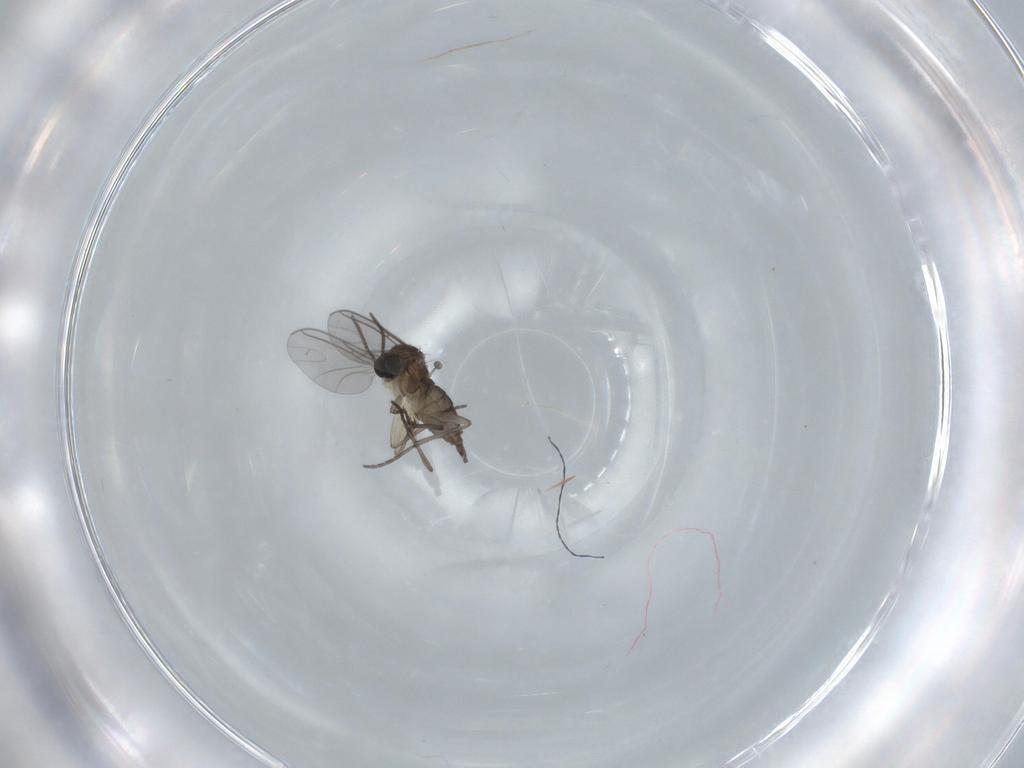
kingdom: Animalia
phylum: Arthropoda
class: Insecta
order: Diptera
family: Sciaridae
